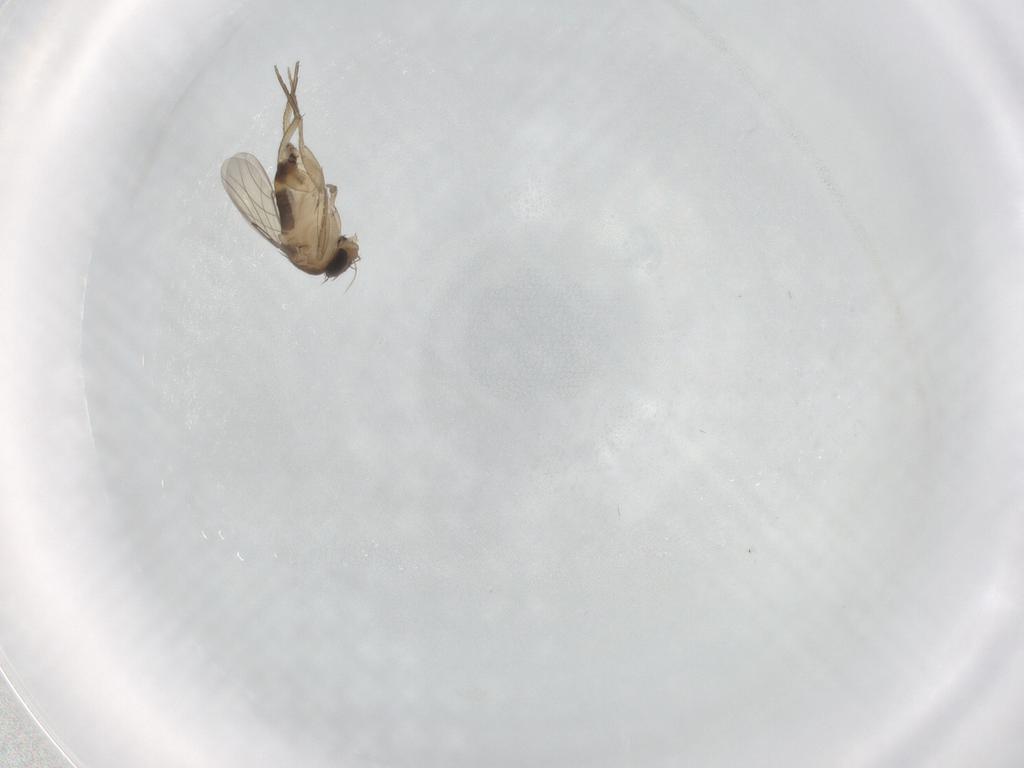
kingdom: Animalia
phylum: Arthropoda
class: Insecta
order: Diptera
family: Phoridae
